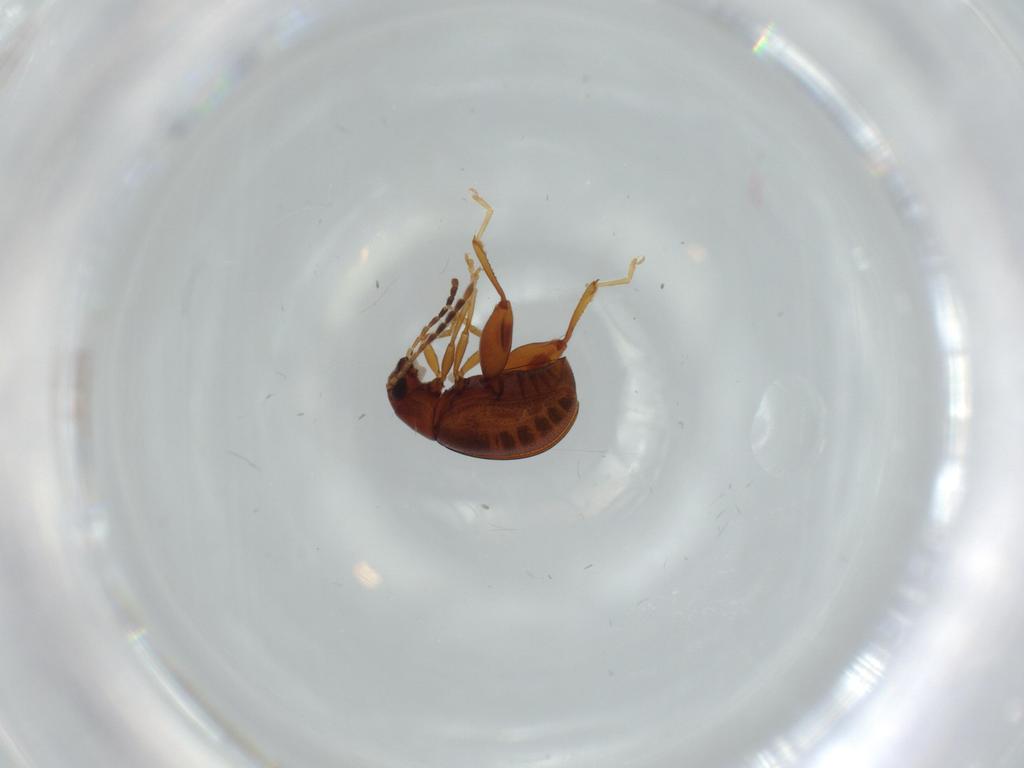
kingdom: Animalia
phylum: Arthropoda
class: Insecta
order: Coleoptera
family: Chrysomelidae
